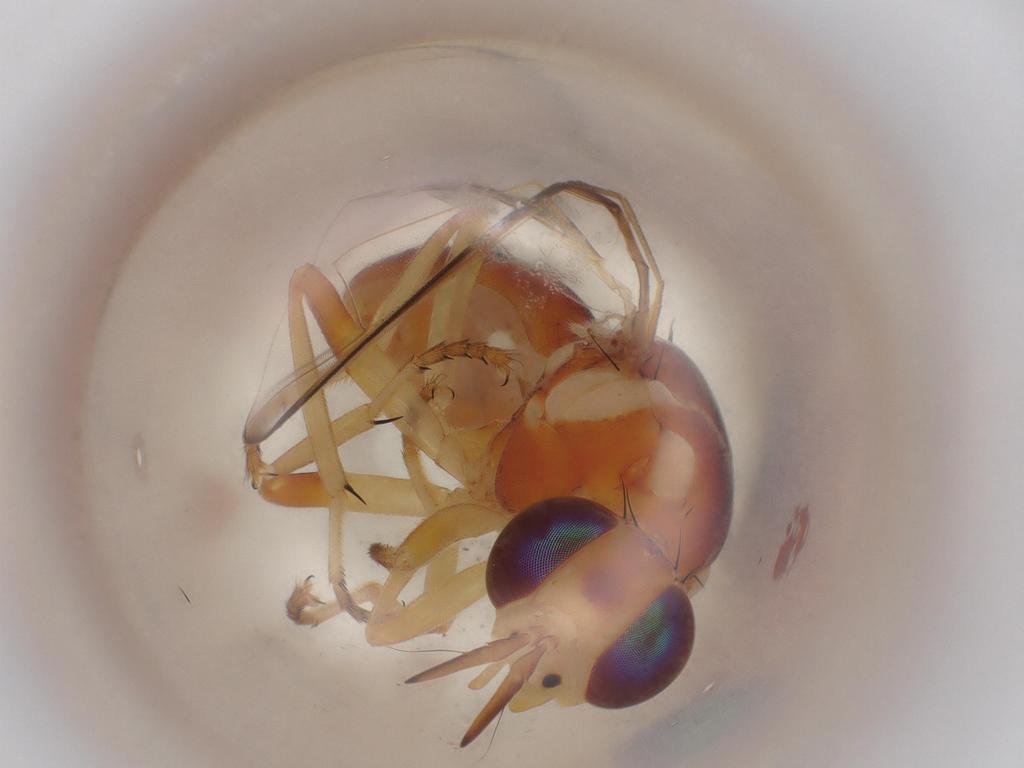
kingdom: Animalia
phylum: Arthropoda
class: Insecta
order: Diptera
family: Tephritidae
